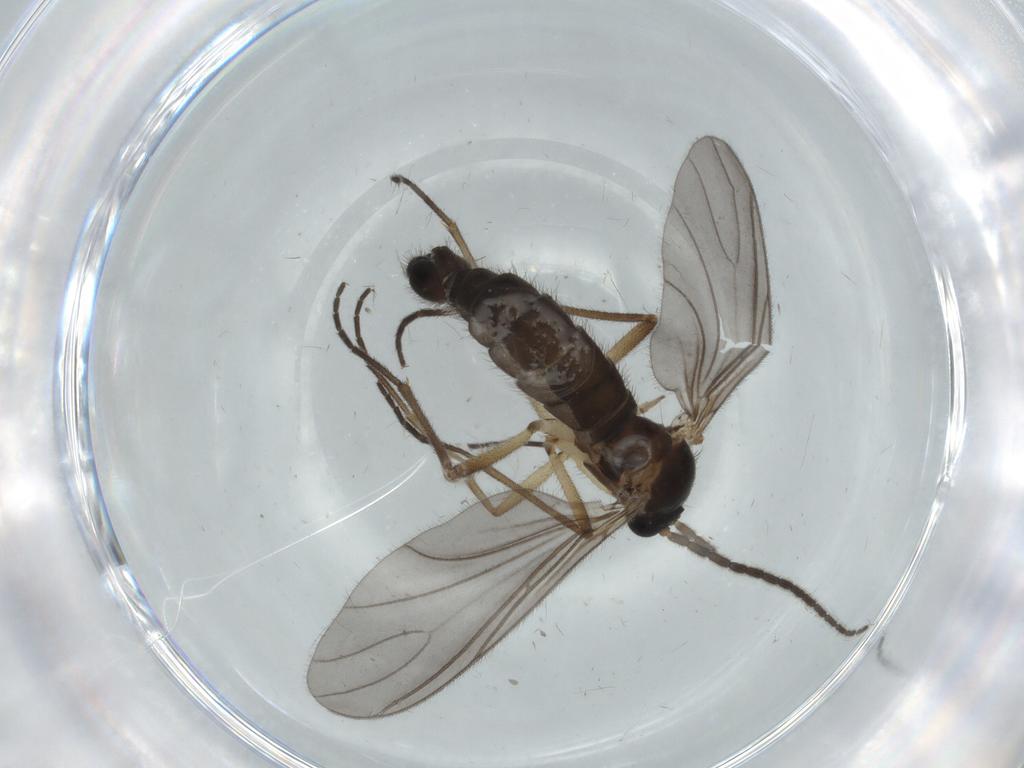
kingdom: Animalia
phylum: Arthropoda
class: Insecta
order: Diptera
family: Sciaridae
